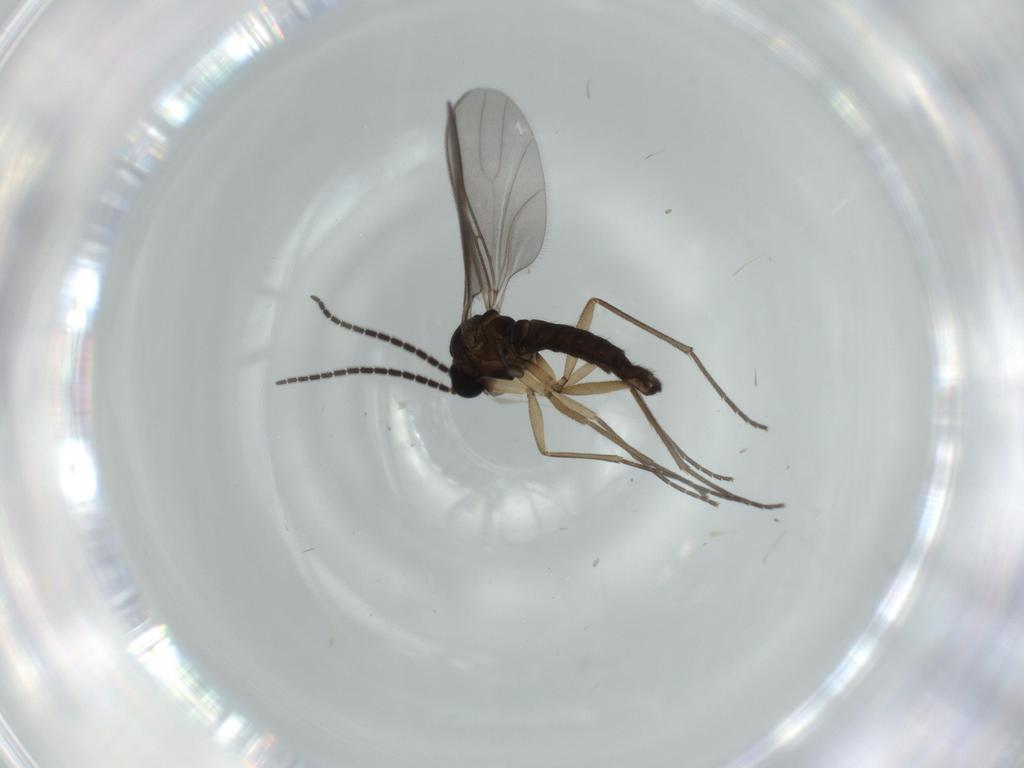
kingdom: Animalia
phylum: Arthropoda
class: Insecta
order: Diptera
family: Sciaridae
